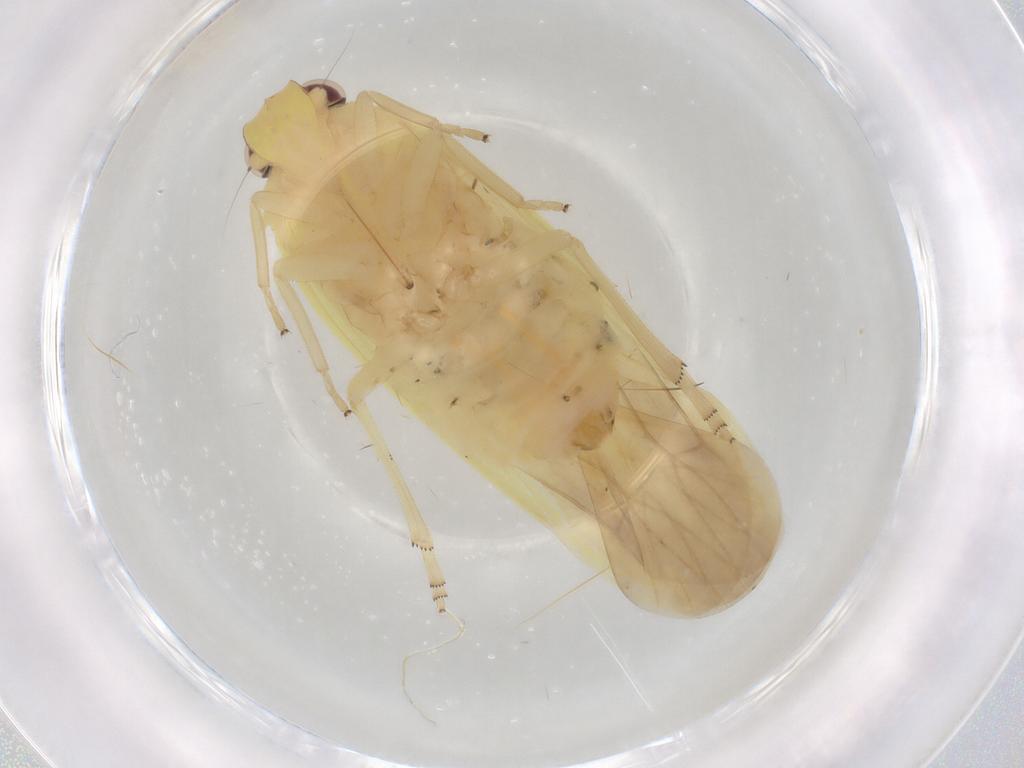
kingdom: Animalia
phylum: Arthropoda
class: Insecta
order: Hemiptera
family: Achilidae
